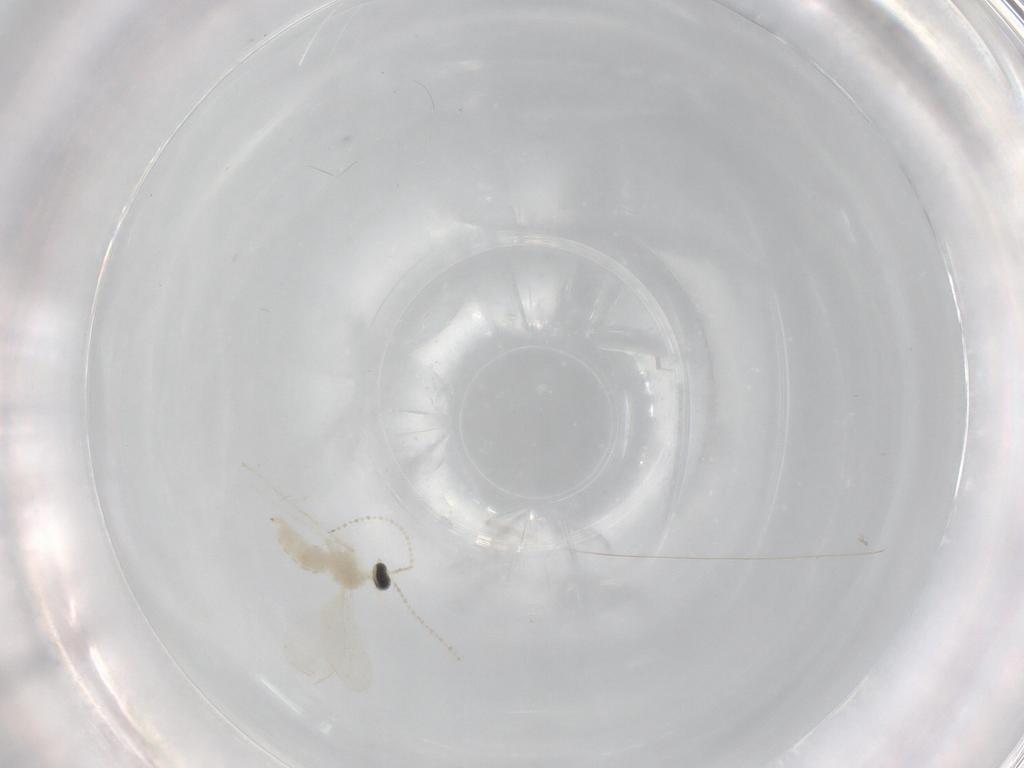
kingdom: Animalia
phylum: Arthropoda
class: Insecta
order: Diptera
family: Cecidomyiidae
